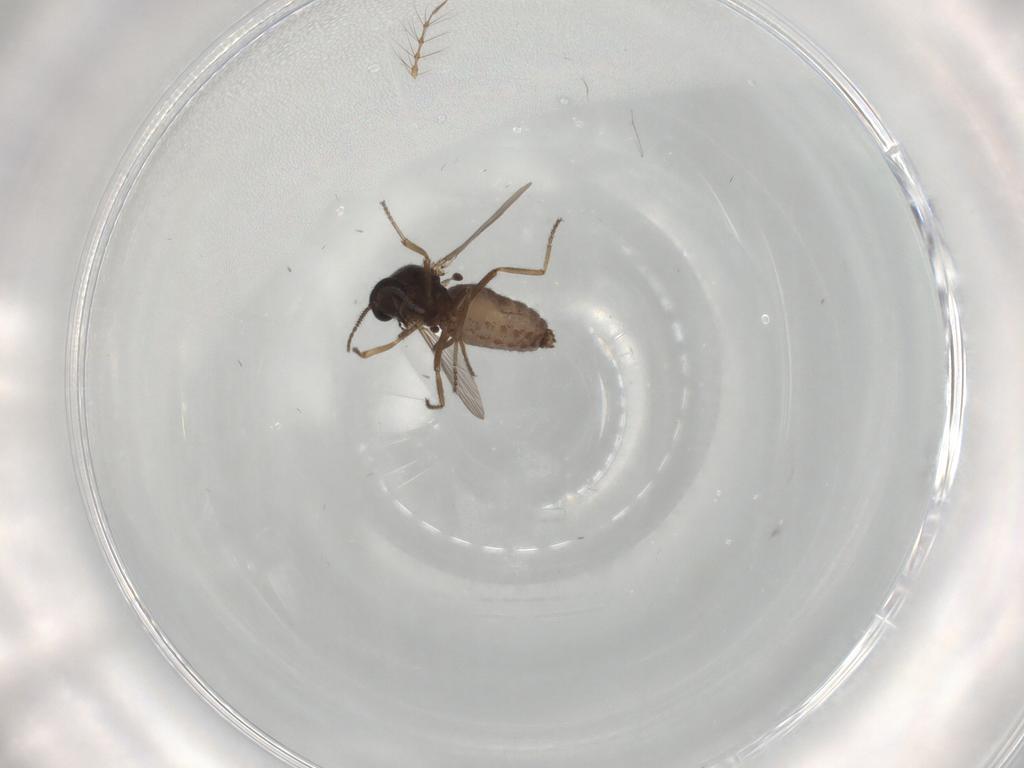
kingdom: Animalia
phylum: Arthropoda
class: Insecta
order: Diptera
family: Ceratopogonidae
